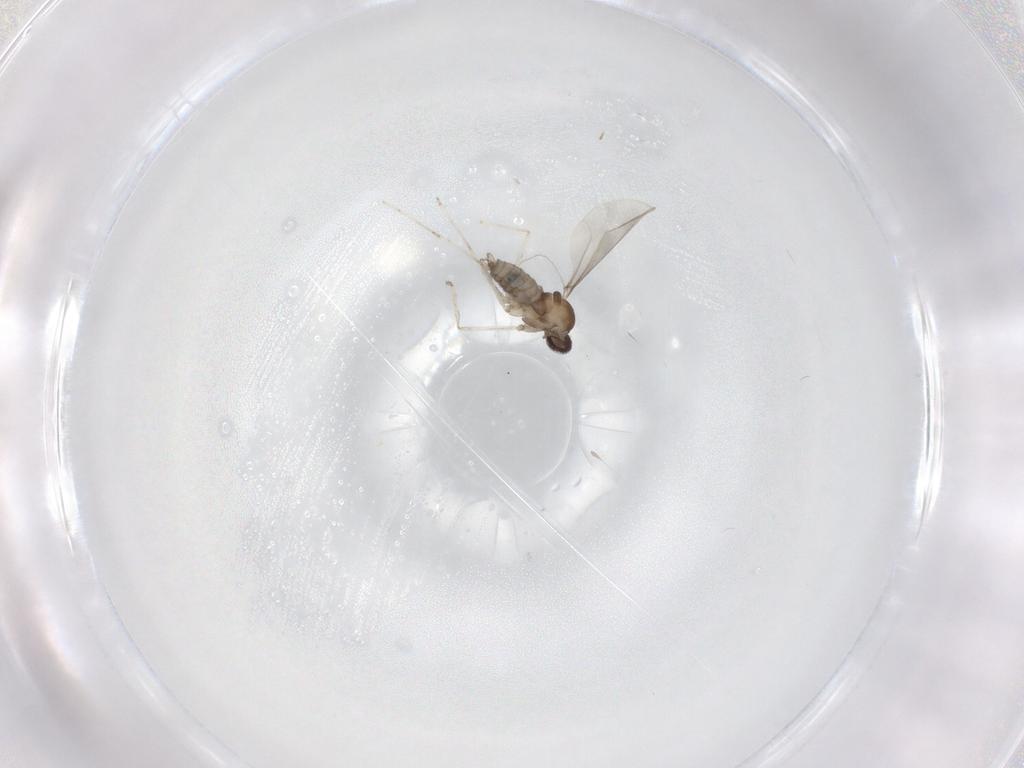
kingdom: Animalia
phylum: Arthropoda
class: Insecta
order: Diptera
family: Cecidomyiidae
